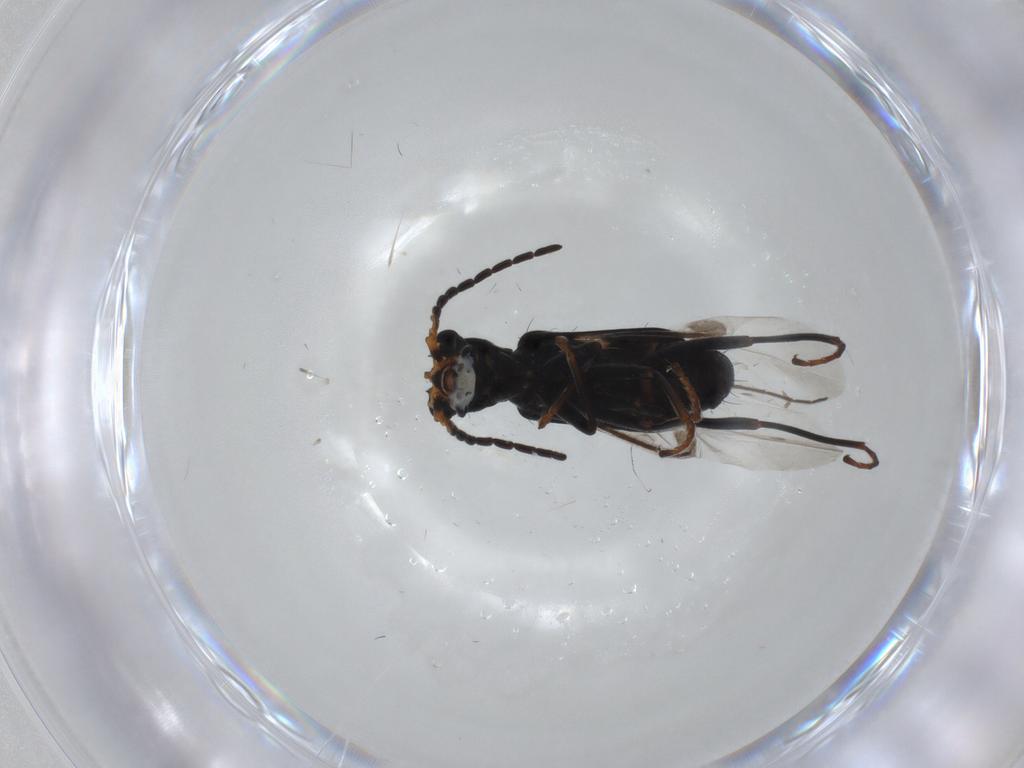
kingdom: Animalia
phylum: Arthropoda
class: Insecta
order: Coleoptera
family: Melyridae
